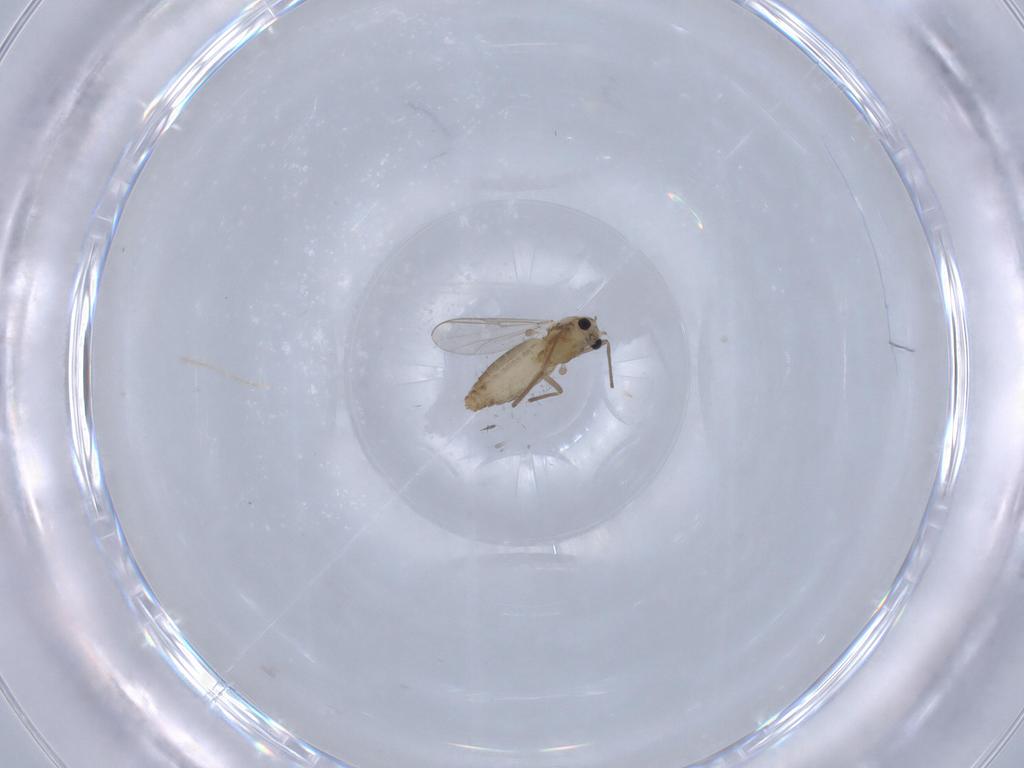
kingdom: Animalia
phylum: Arthropoda
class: Insecta
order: Diptera
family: Chironomidae
